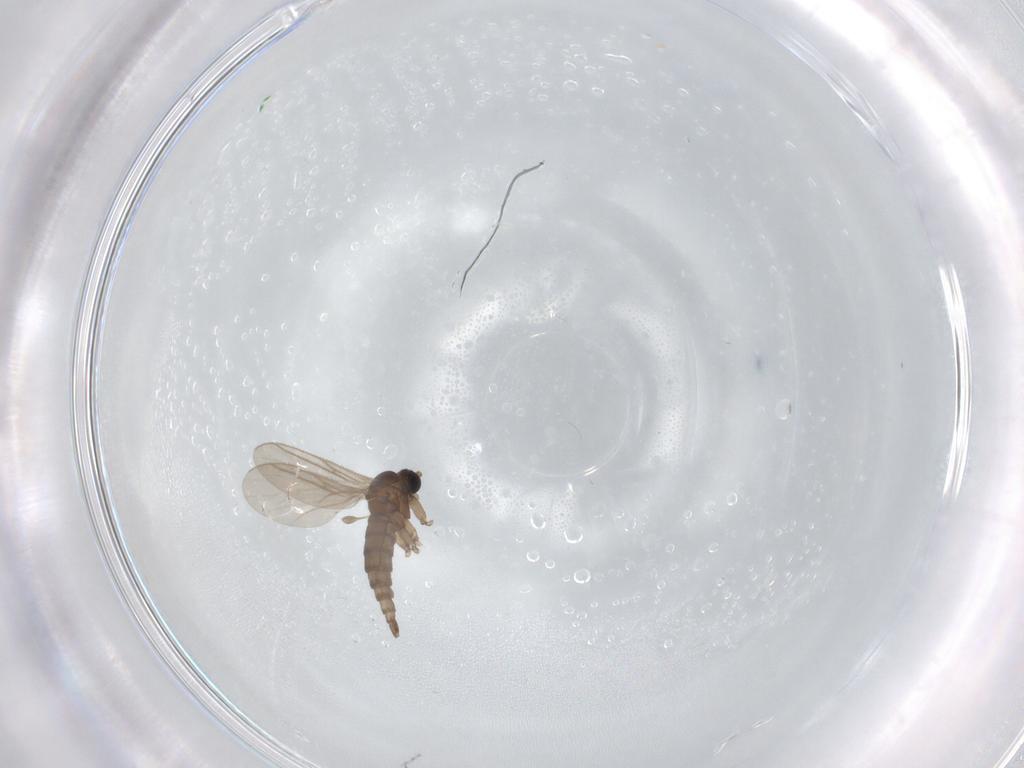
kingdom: Animalia
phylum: Arthropoda
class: Insecta
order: Diptera
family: Sciaridae
